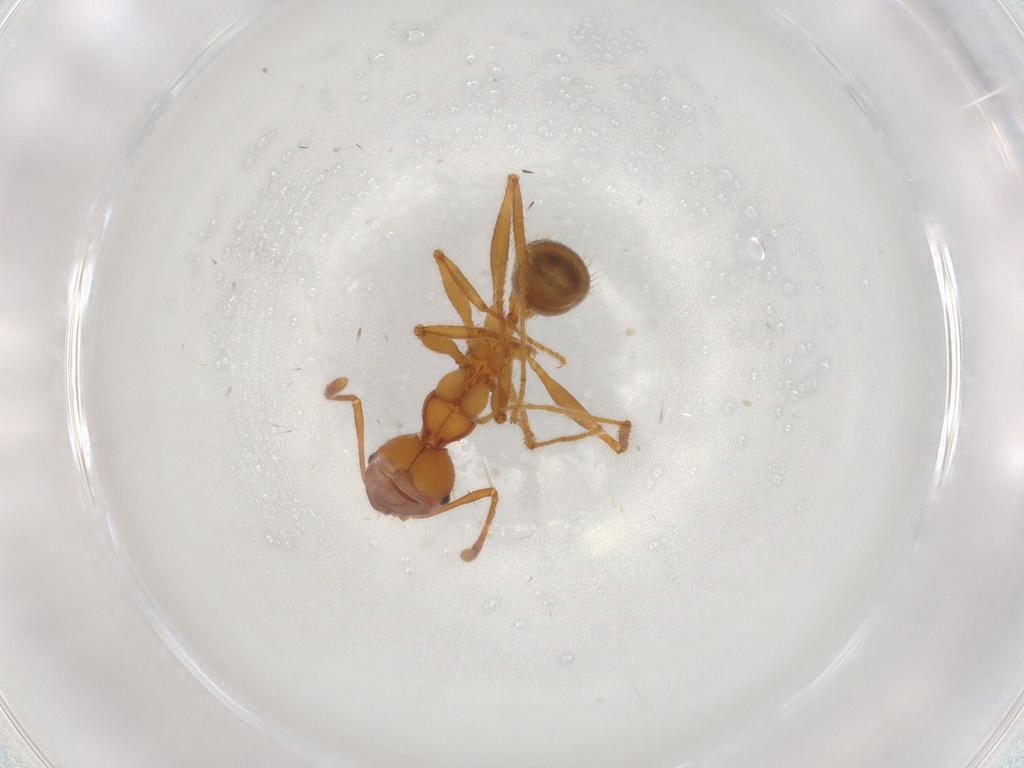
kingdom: Animalia
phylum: Arthropoda
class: Insecta
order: Hymenoptera
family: Formicidae
